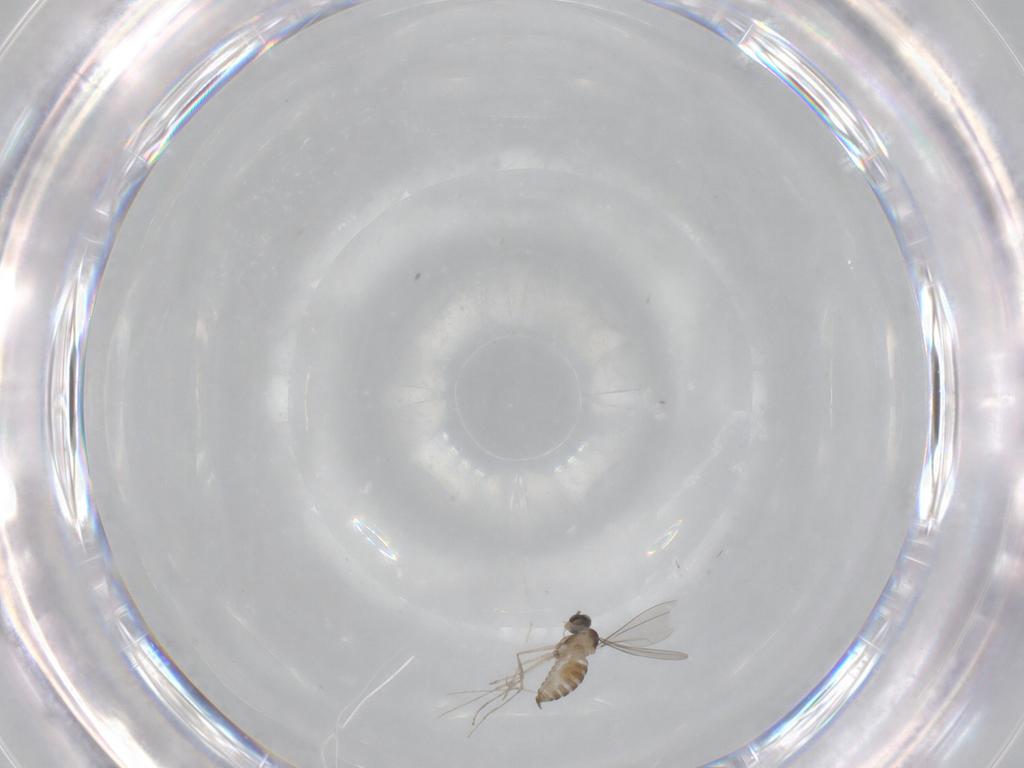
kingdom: Animalia
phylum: Arthropoda
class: Insecta
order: Diptera
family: Cecidomyiidae
